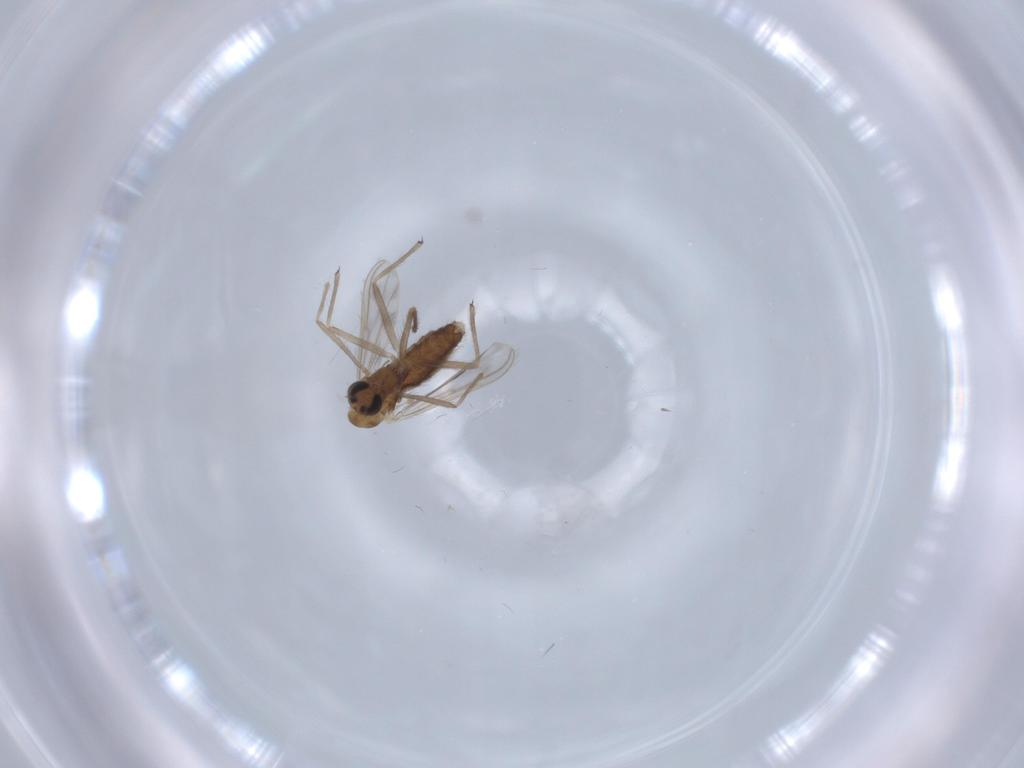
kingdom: Animalia
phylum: Arthropoda
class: Insecta
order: Diptera
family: Chironomidae
